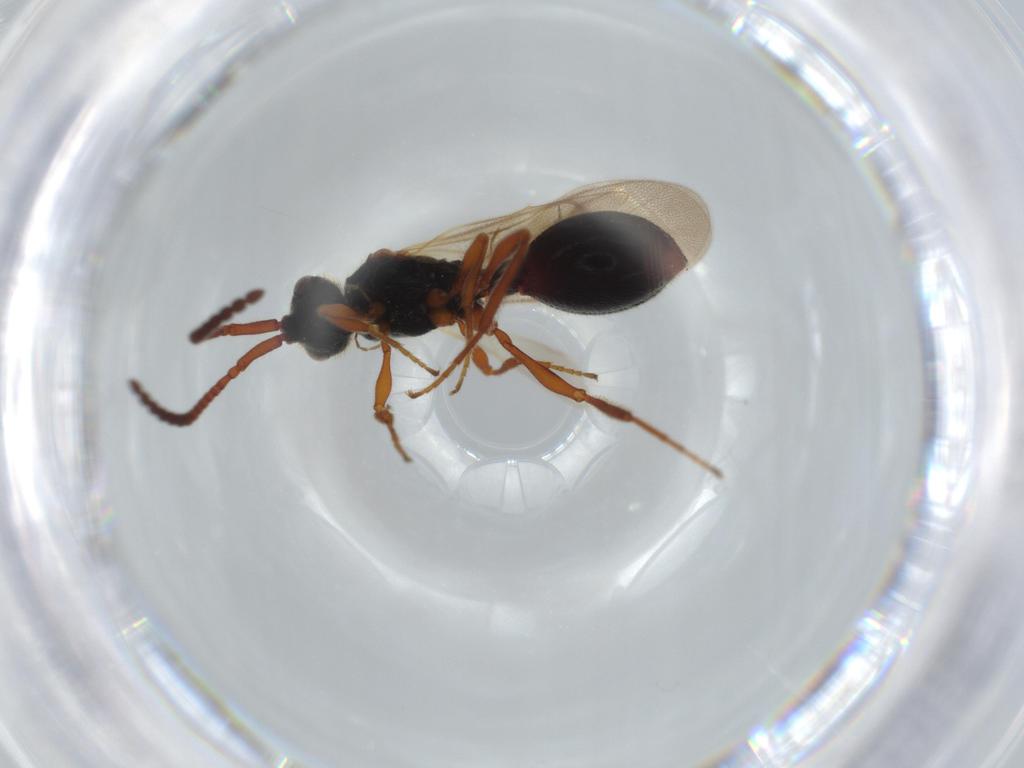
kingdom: Animalia
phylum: Arthropoda
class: Insecta
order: Hymenoptera
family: Diapriidae
